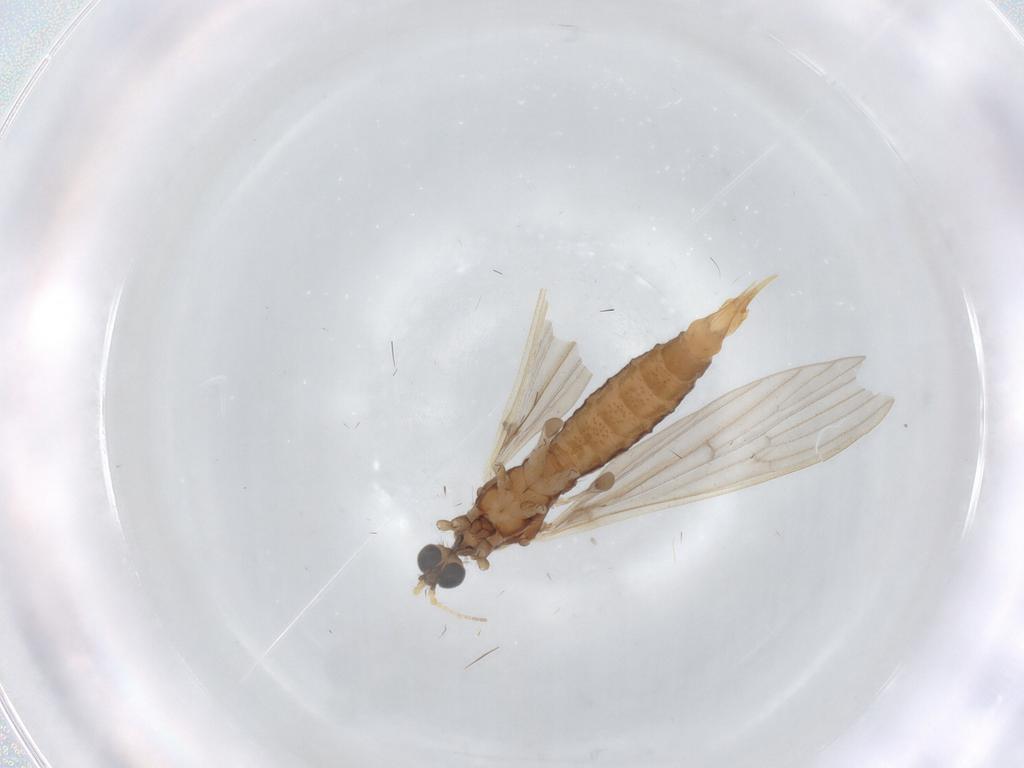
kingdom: Animalia
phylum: Arthropoda
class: Insecta
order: Diptera
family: Limoniidae
